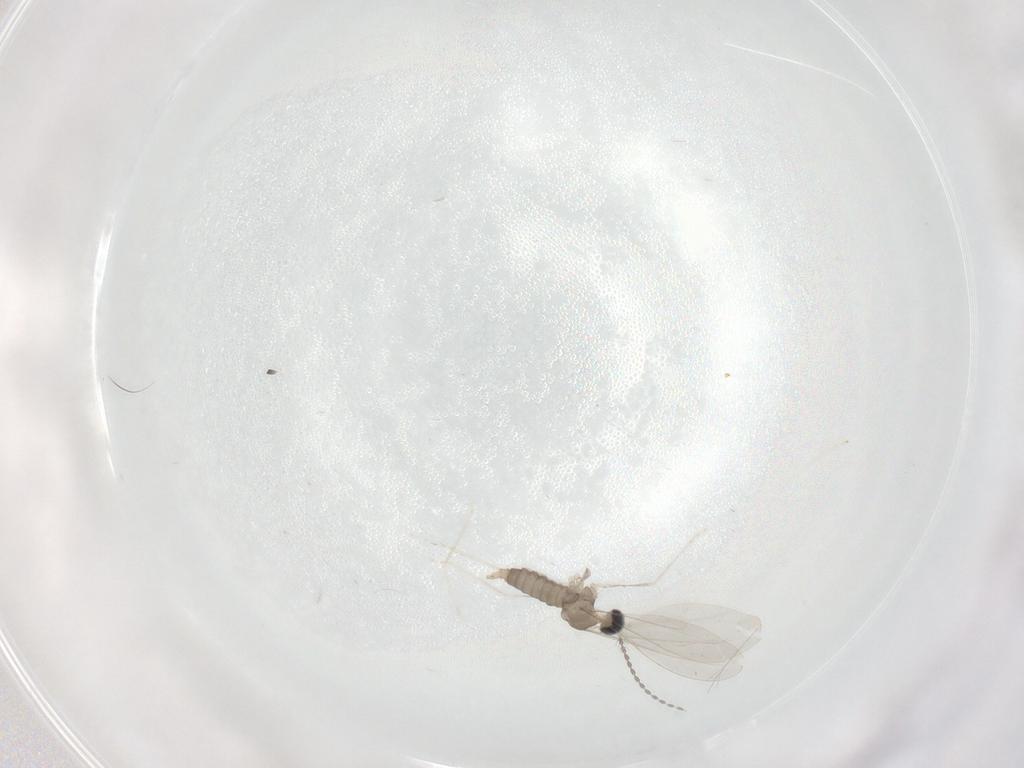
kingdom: Animalia
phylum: Arthropoda
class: Insecta
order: Diptera
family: Cecidomyiidae
